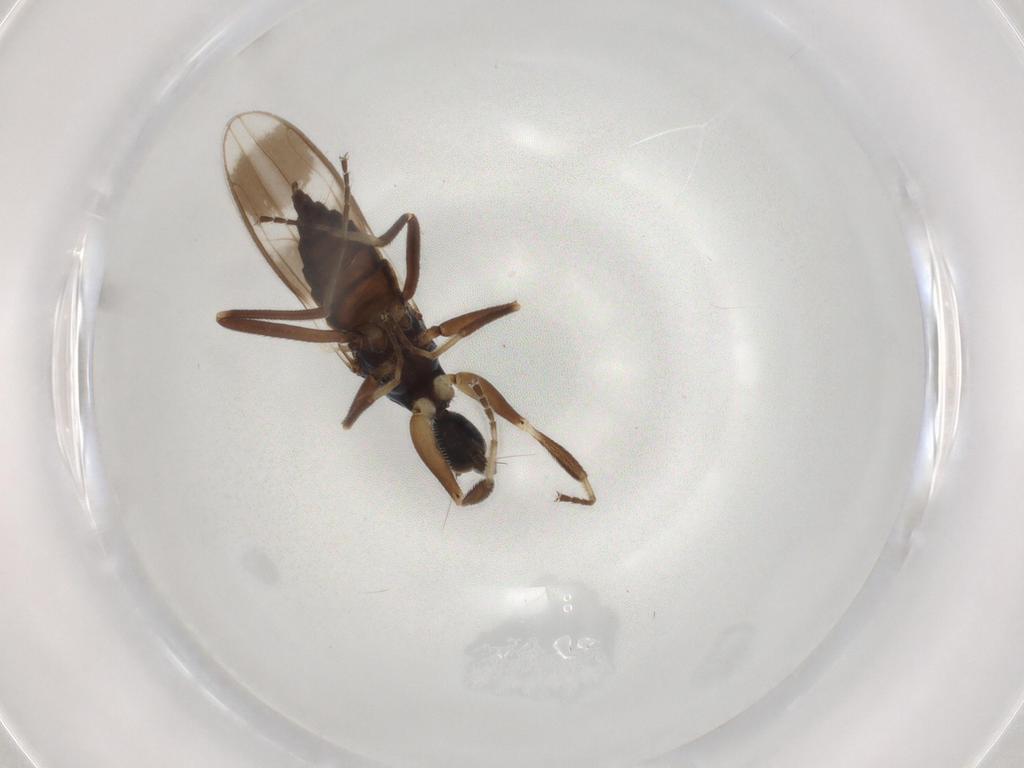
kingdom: Animalia
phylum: Arthropoda
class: Insecta
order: Diptera
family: Hybotidae
